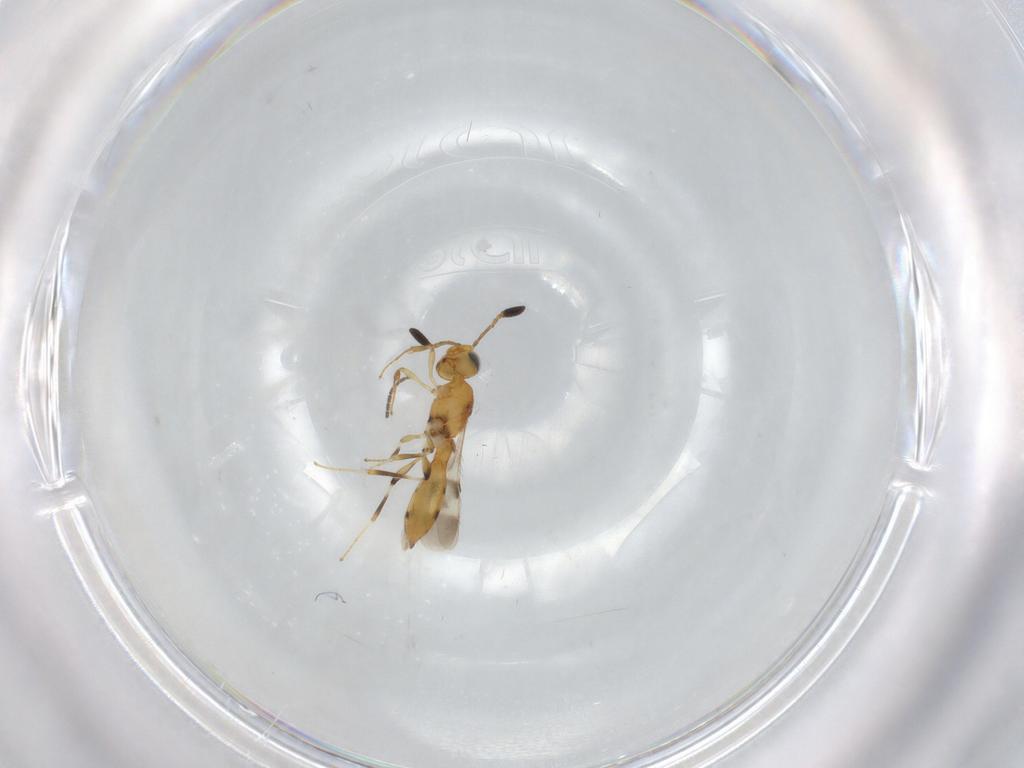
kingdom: Animalia
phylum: Arthropoda
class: Insecta
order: Hymenoptera
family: Scelionidae
